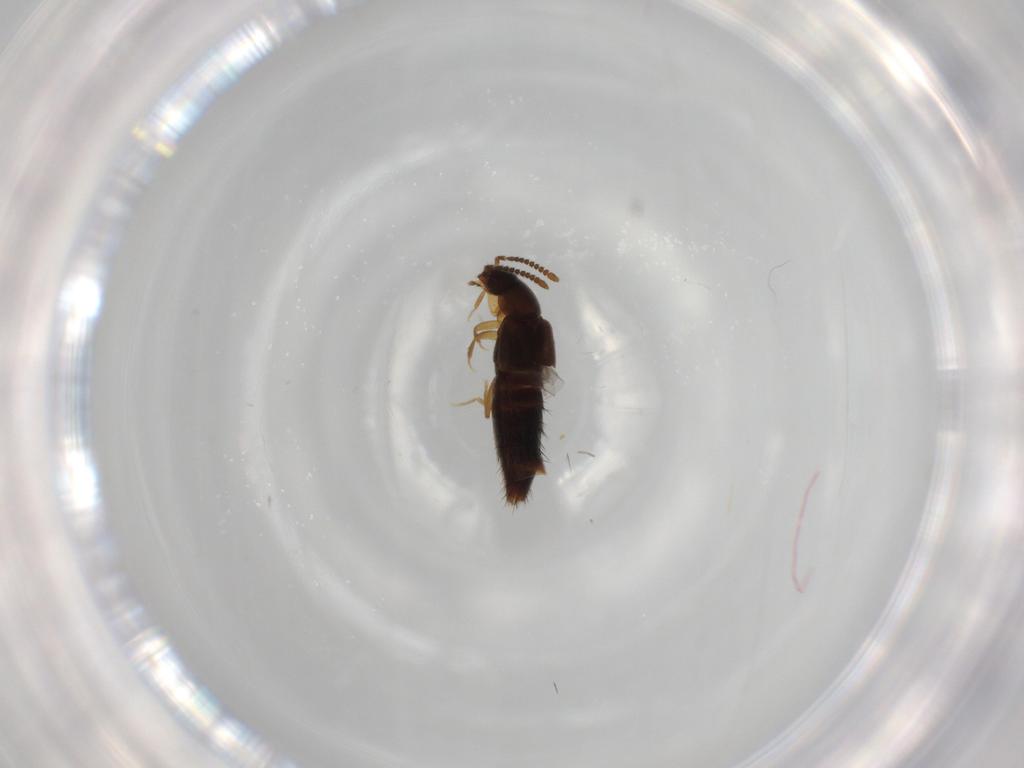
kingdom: Animalia
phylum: Arthropoda
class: Insecta
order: Coleoptera
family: Staphylinidae
